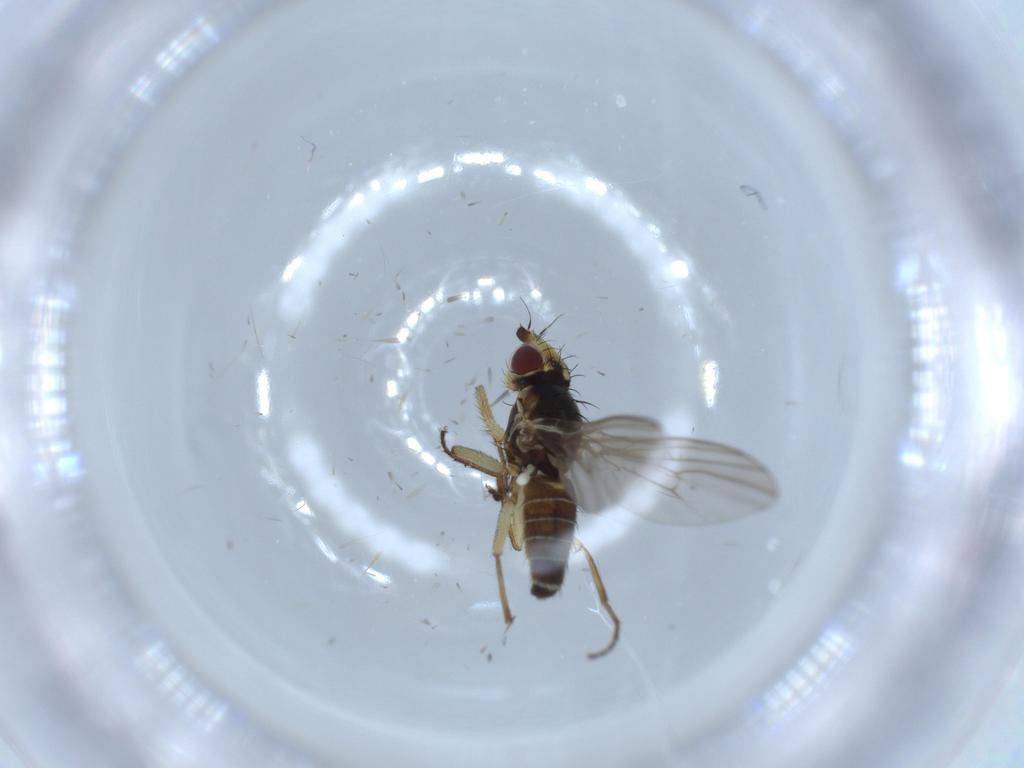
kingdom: Animalia
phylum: Arthropoda
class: Insecta
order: Diptera
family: Agromyzidae
